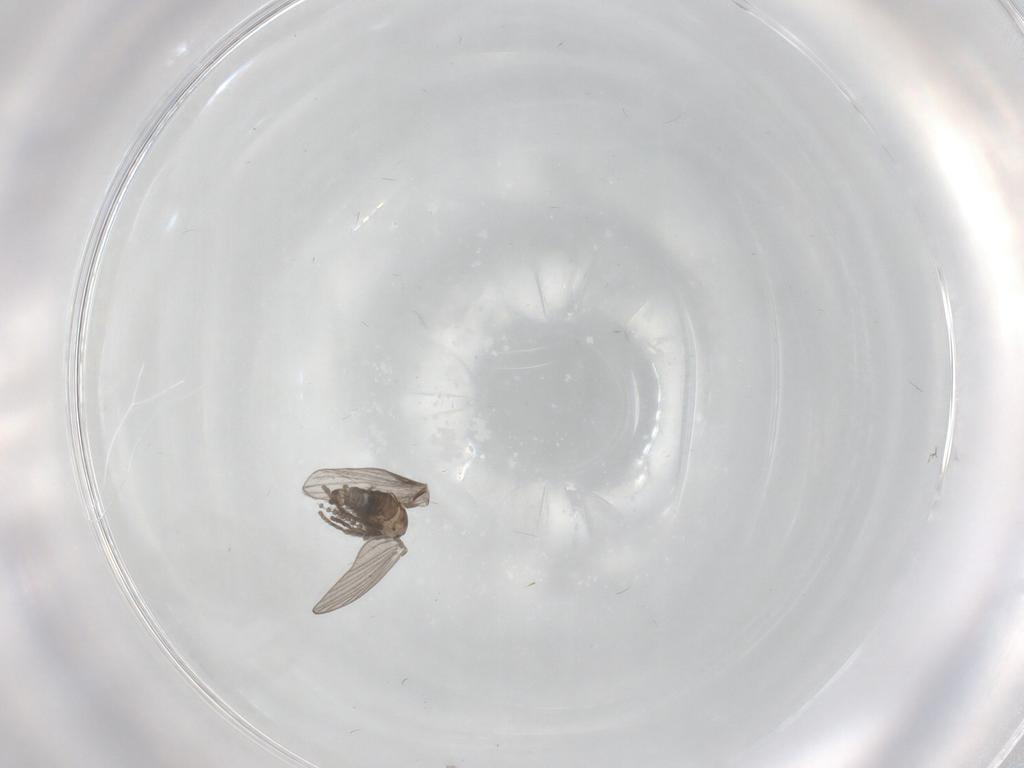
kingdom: Animalia
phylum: Arthropoda
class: Insecta
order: Diptera
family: Psychodidae
